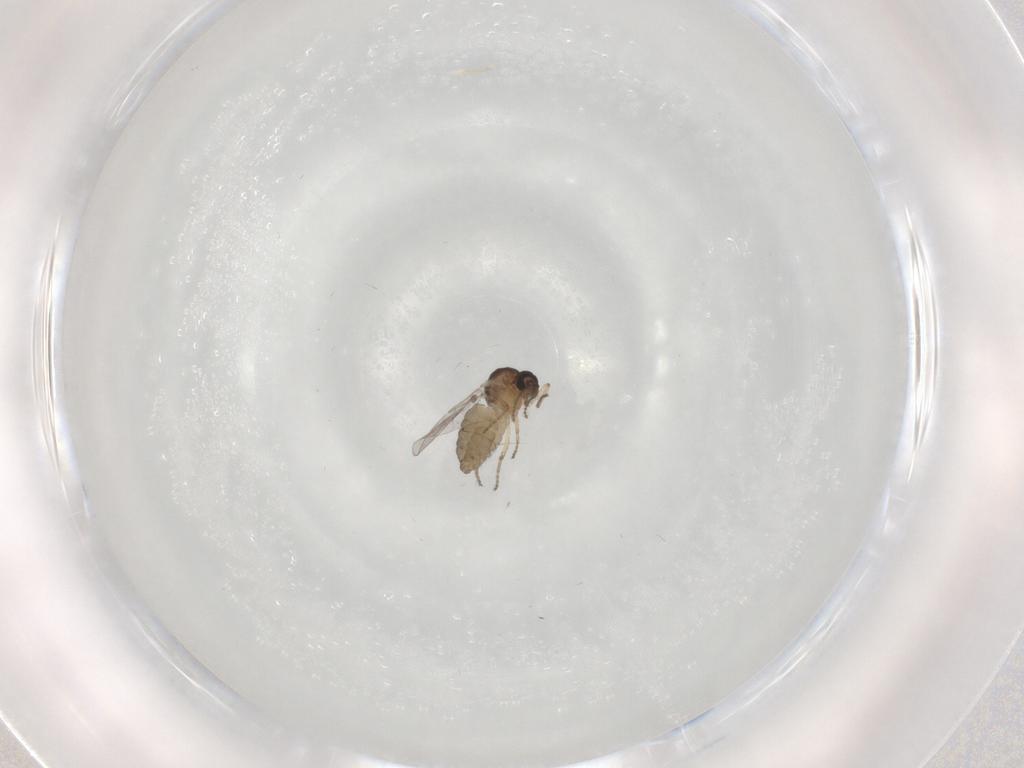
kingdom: Animalia
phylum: Arthropoda
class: Insecta
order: Diptera
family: Ceratopogonidae
